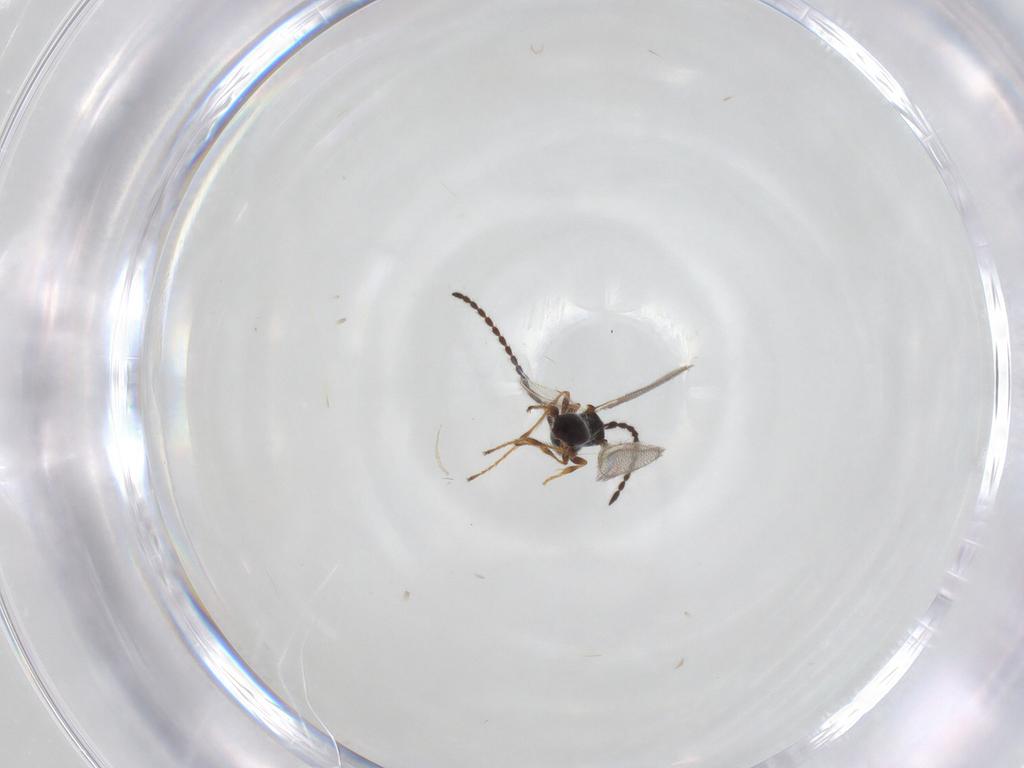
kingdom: Animalia
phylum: Arthropoda
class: Insecta
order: Hymenoptera
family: Diapriidae
